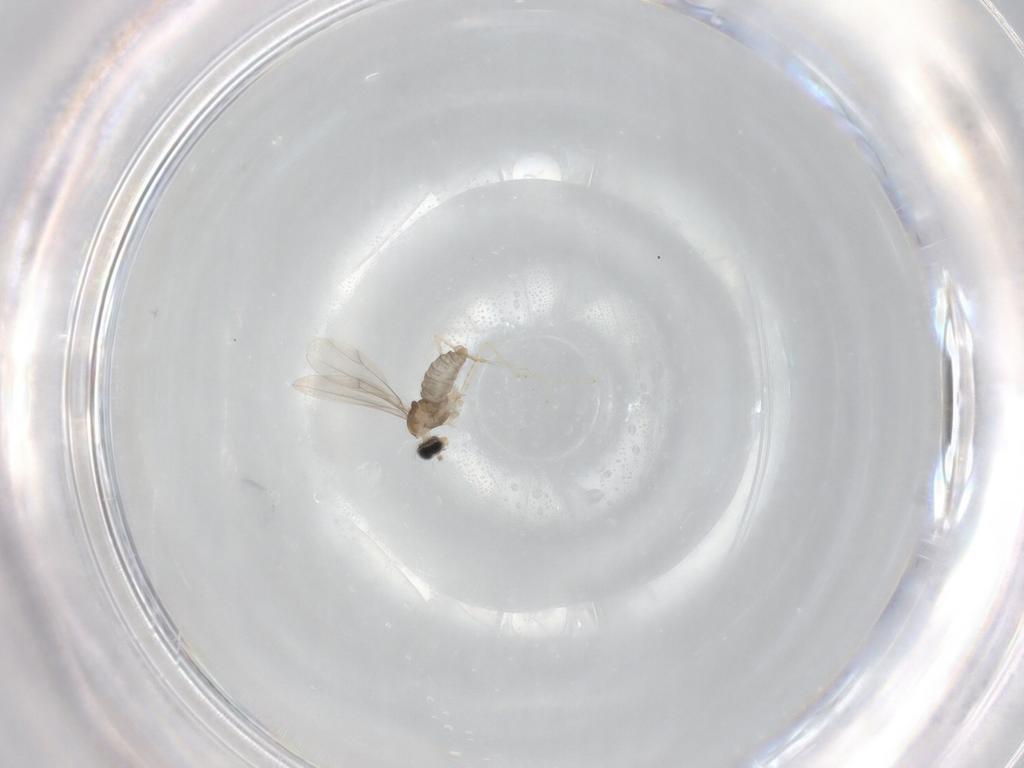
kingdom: Animalia
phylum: Arthropoda
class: Insecta
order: Diptera
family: Cecidomyiidae
